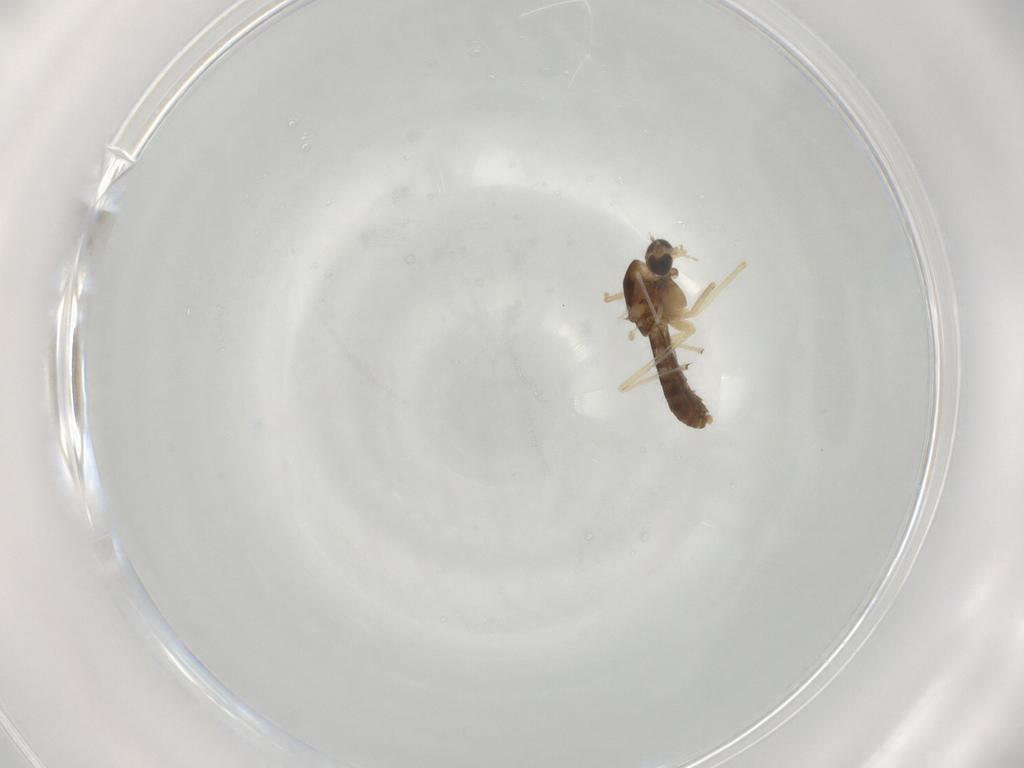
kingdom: Animalia
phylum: Arthropoda
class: Insecta
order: Diptera
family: Chironomidae
